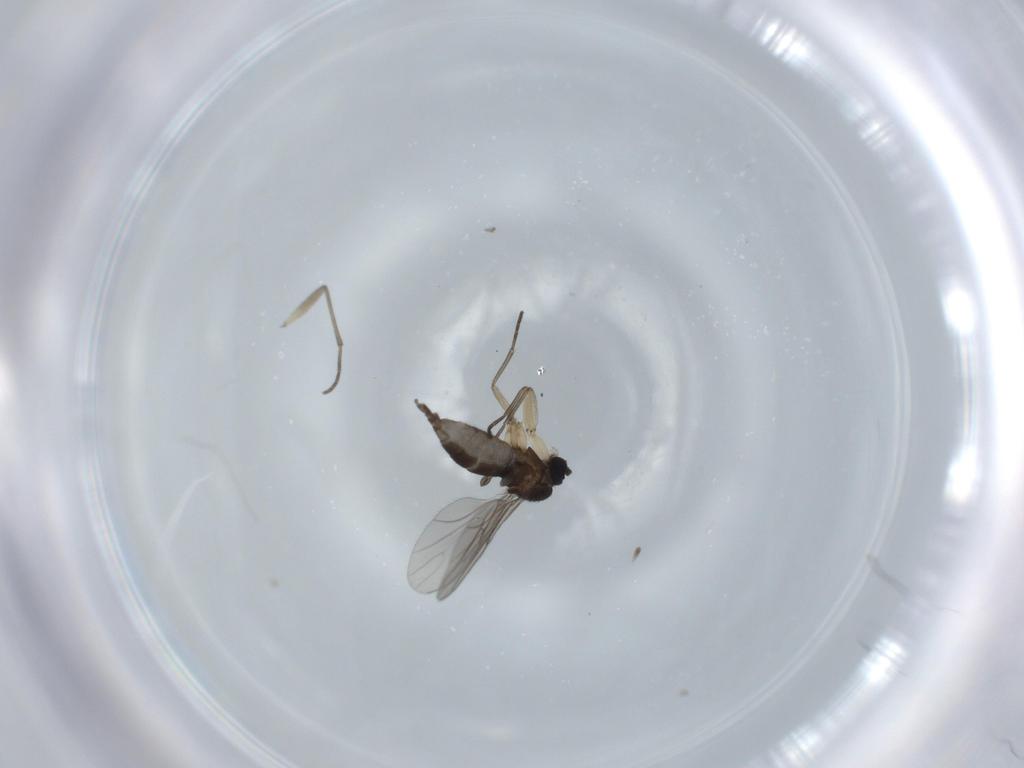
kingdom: Animalia
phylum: Arthropoda
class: Insecta
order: Diptera
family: Sciaridae
